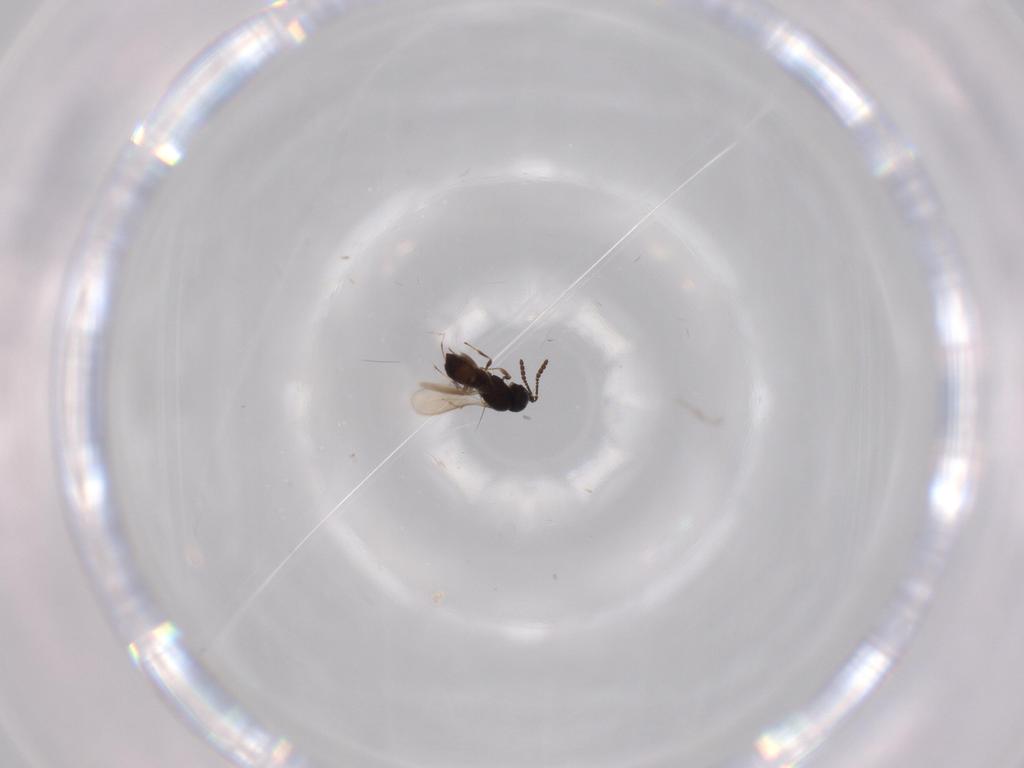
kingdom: Animalia
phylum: Arthropoda
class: Insecta
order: Hymenoptera
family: Scelionidae
